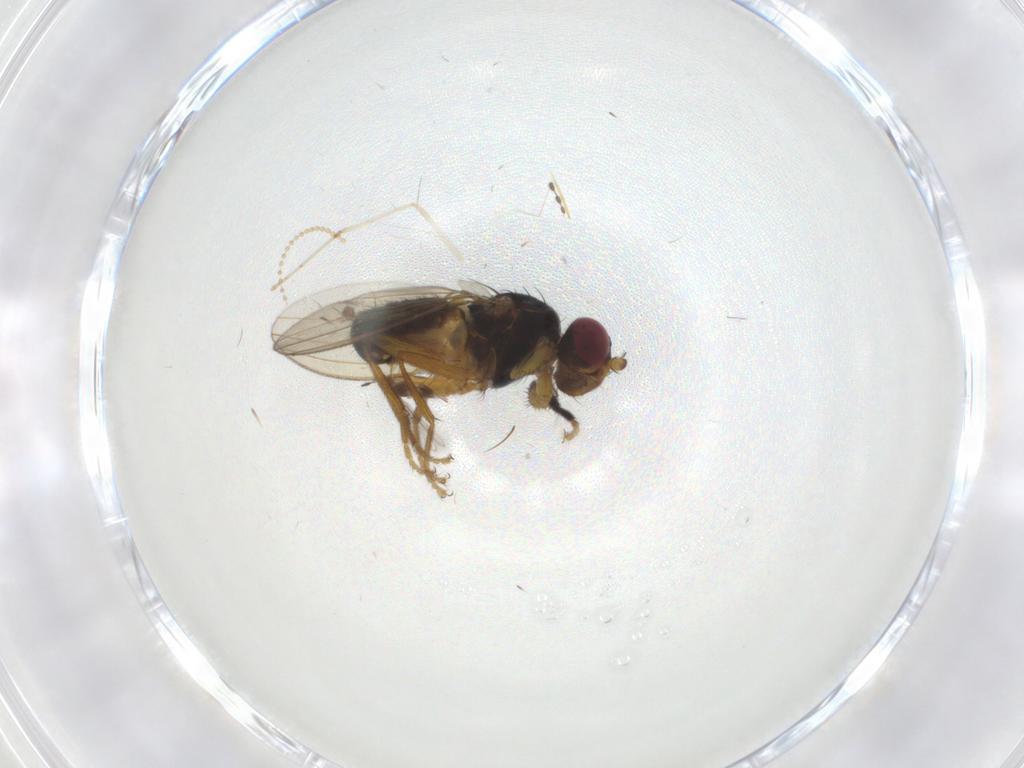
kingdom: Animalia
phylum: Arthropoda
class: Insecta
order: Diptera
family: Pseudopomyzidae
